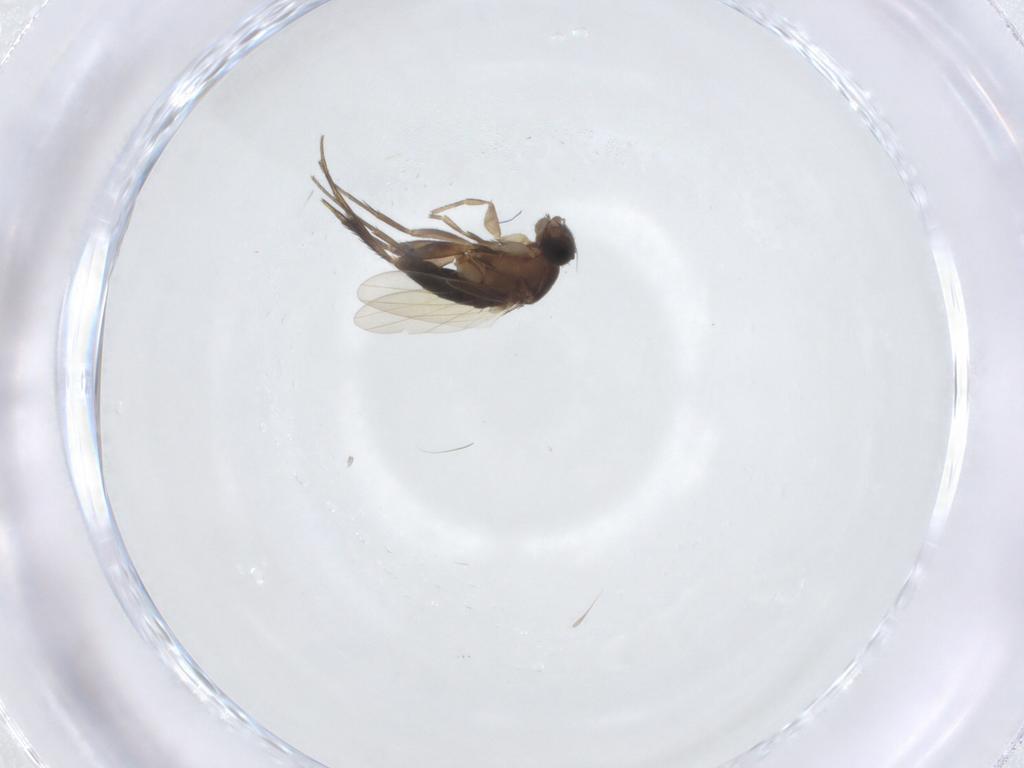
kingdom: Animalia
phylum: Arthropoda
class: Insecta
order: Diptera
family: Phoridae
